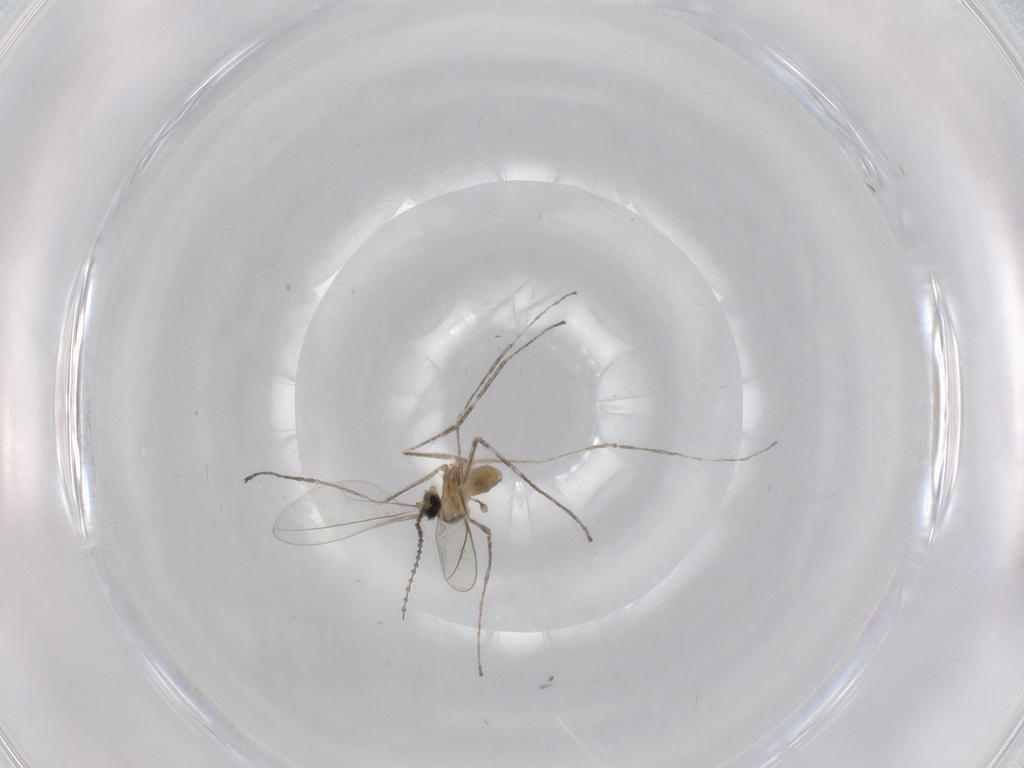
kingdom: Animalia
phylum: Arthropoda
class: Insecta
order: Diptera
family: Cecidomyiidae
